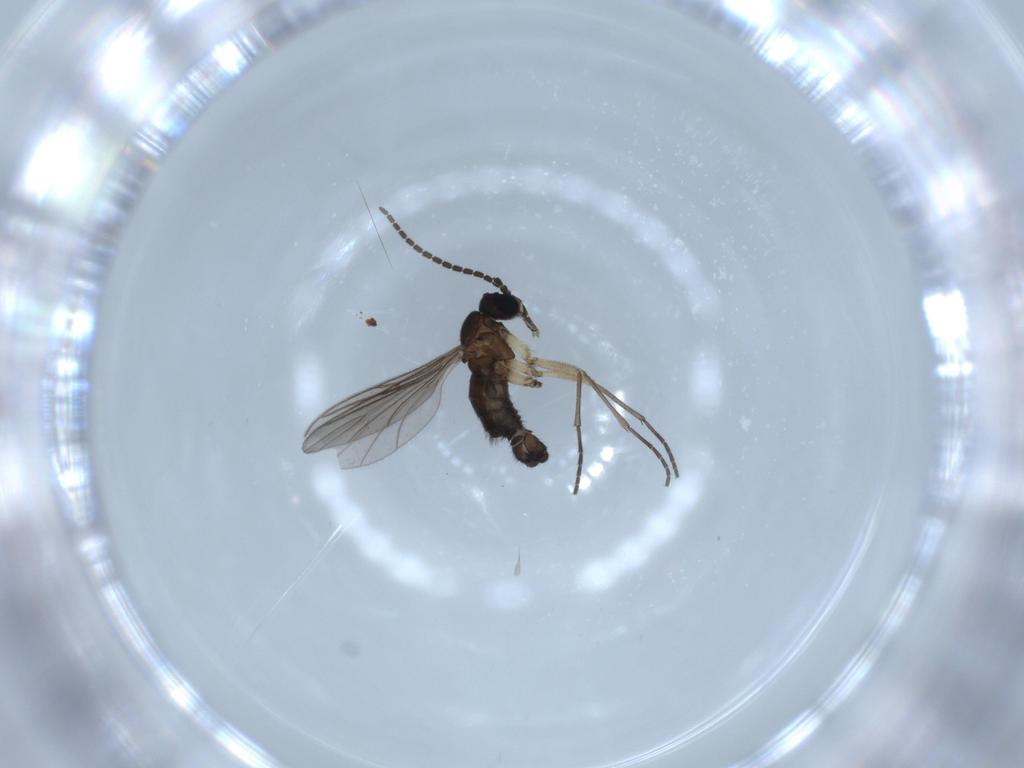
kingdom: Animalia
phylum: Arthropoda
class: Insecta
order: Diptera
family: Sciaridae
